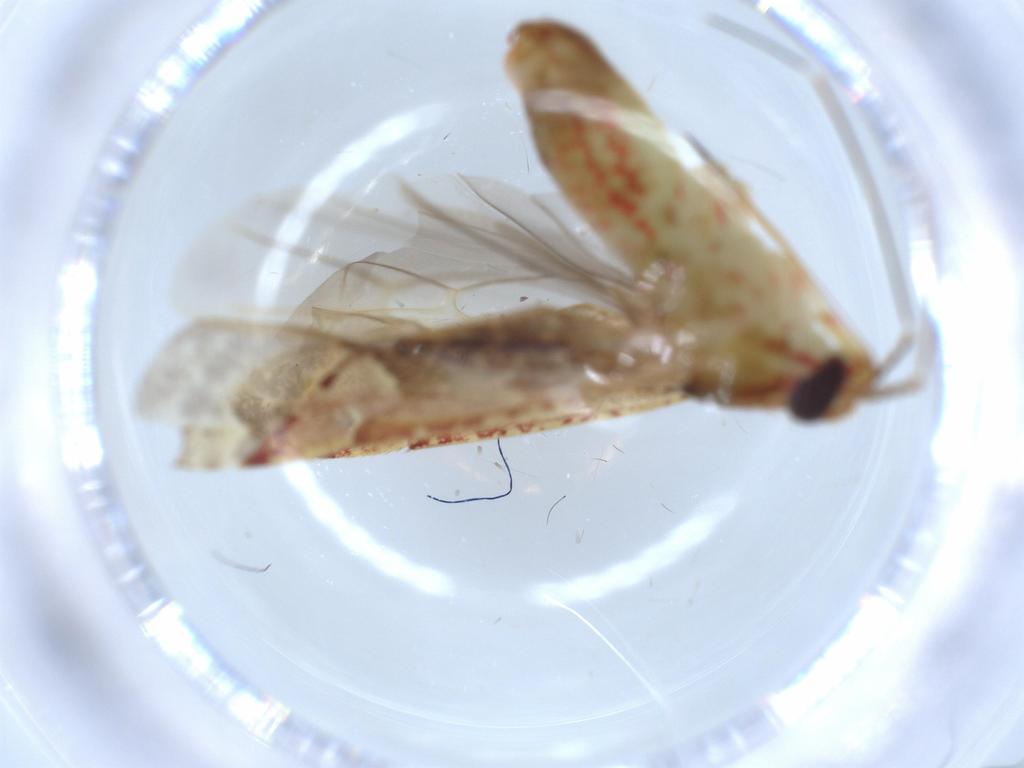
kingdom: Animalia
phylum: Arthropoda
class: Insecta
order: Hemiptera
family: Miridae
